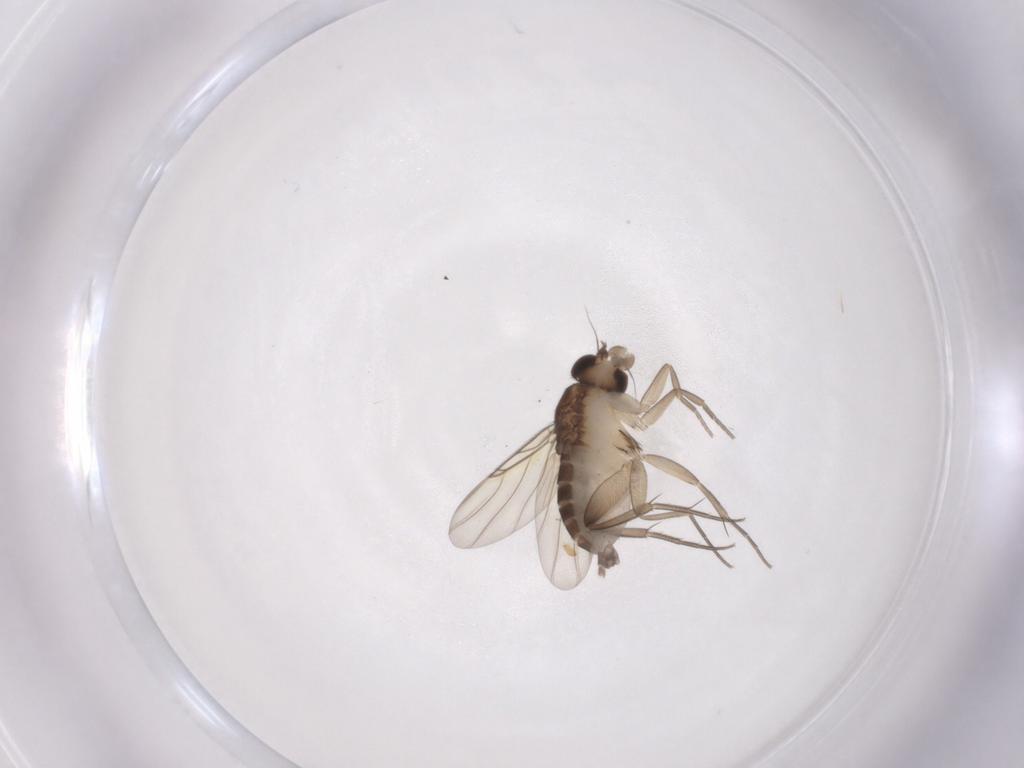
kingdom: Animalia
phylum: Arthropoda
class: Insecta
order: Diptera
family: Phoridae
